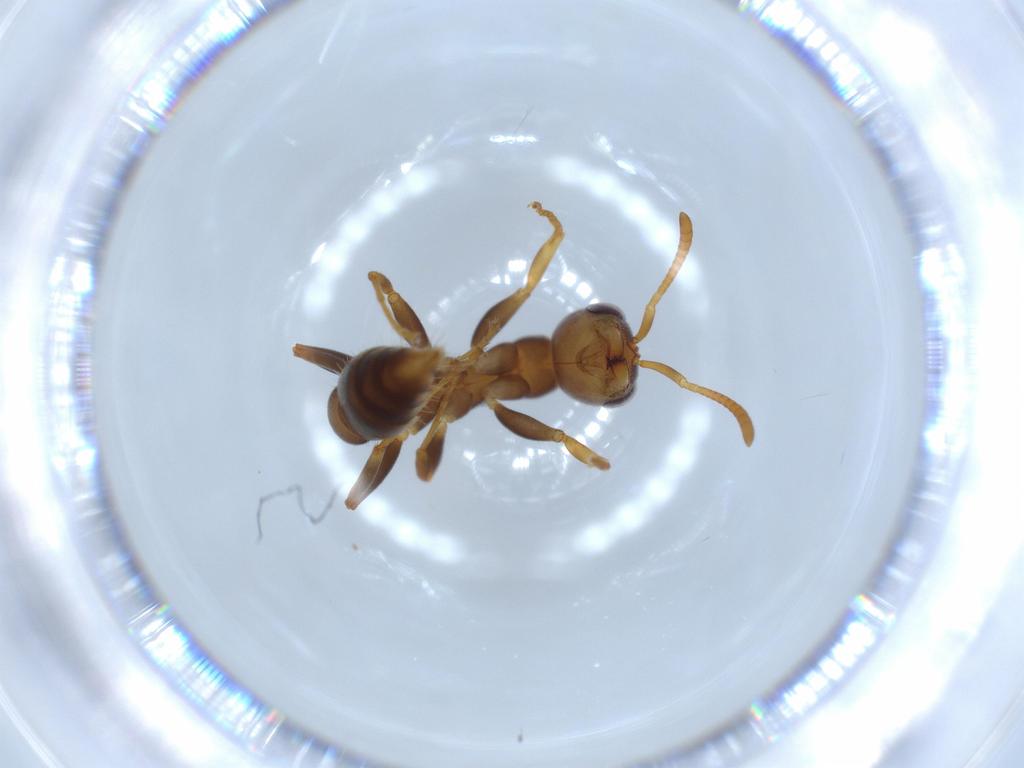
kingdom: Animalia
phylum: Arthropoda
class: Insecta
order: Hymenoptera
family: Formicidae
